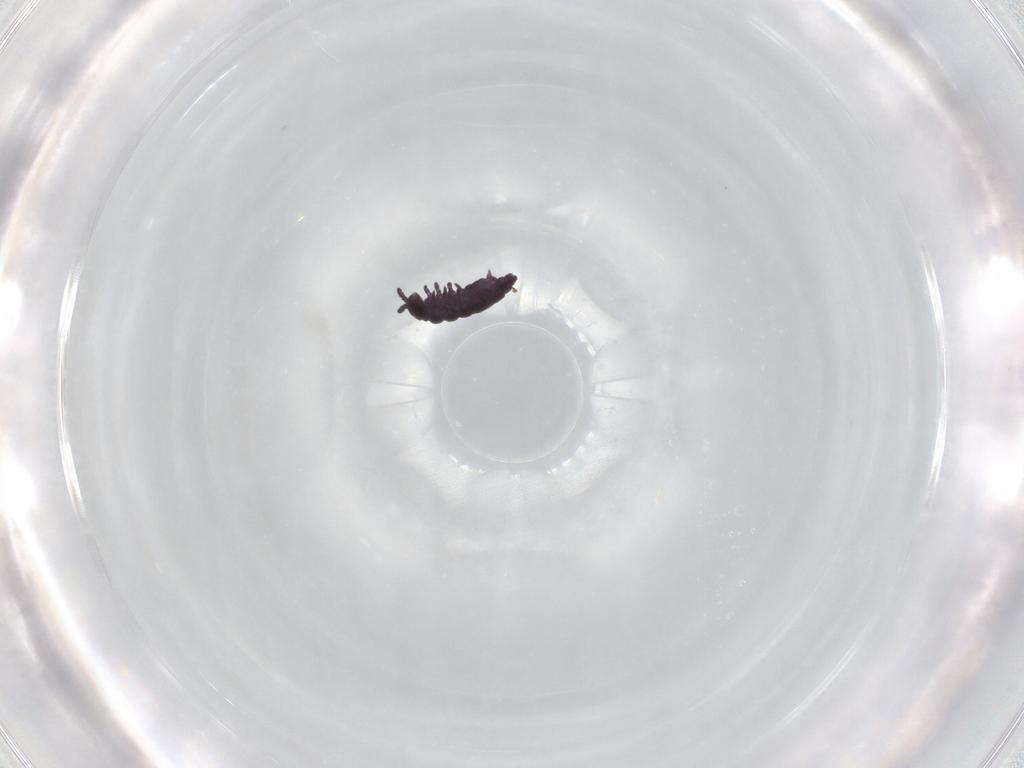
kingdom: Animalia
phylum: Arthropoda
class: Collembola
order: Poduromorpha
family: Hypogastruridae
